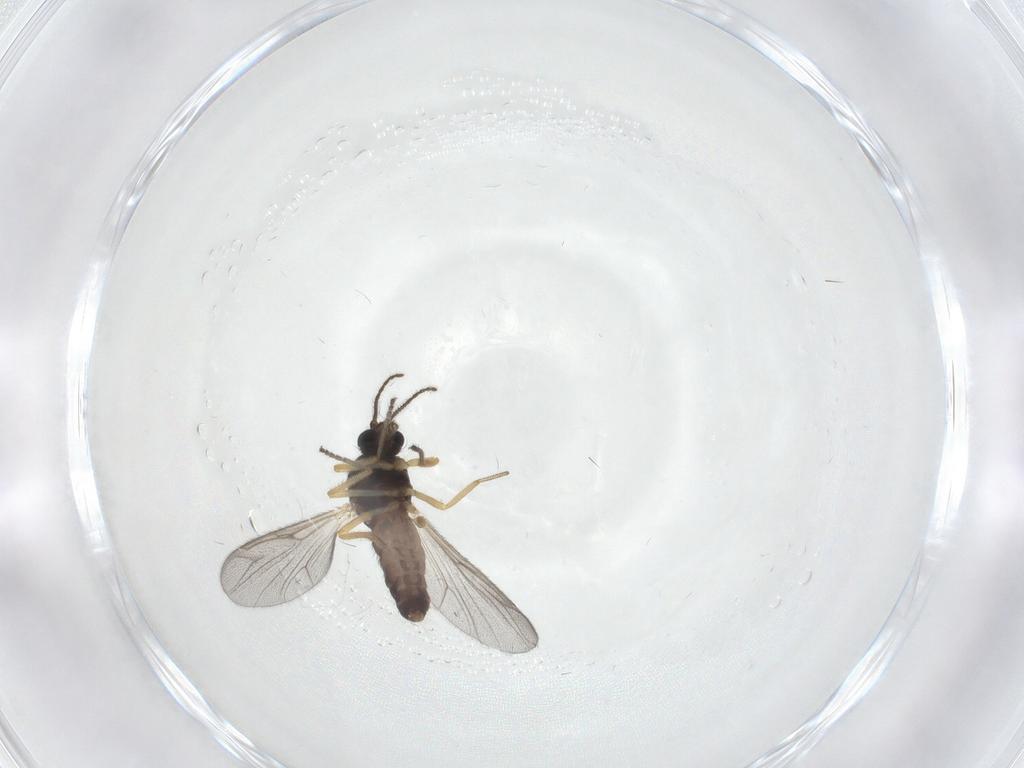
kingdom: Animalia
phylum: Arthropoda
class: Insecta
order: Diptera
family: Ceratopogonidae
